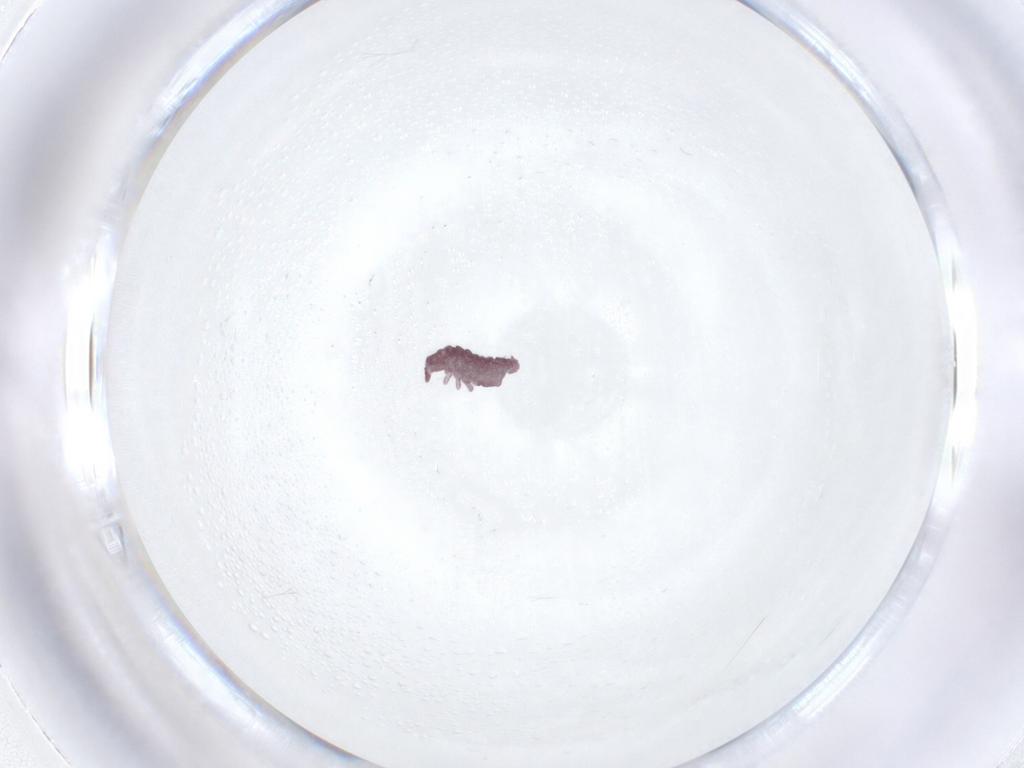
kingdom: Animalia
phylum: Arthropoda
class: Collembola
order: Poduromorpha
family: Hypogastruridae
